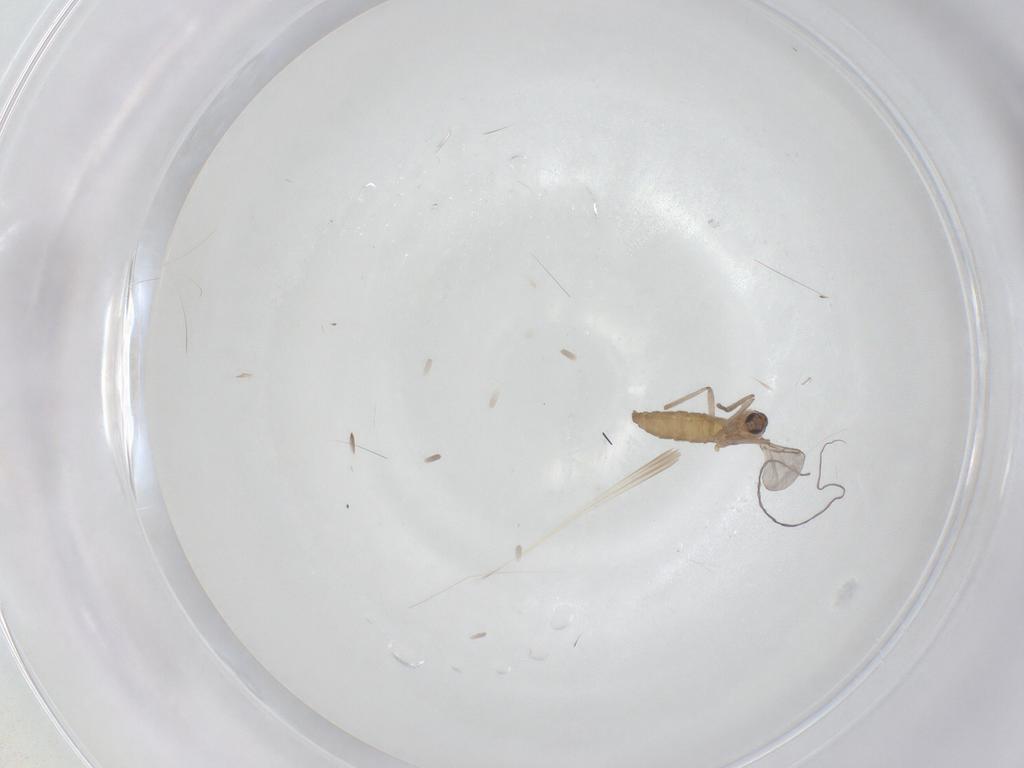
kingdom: Animalia
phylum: Arthropoda
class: Insecta
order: Diptera
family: Cecidomyiidae
